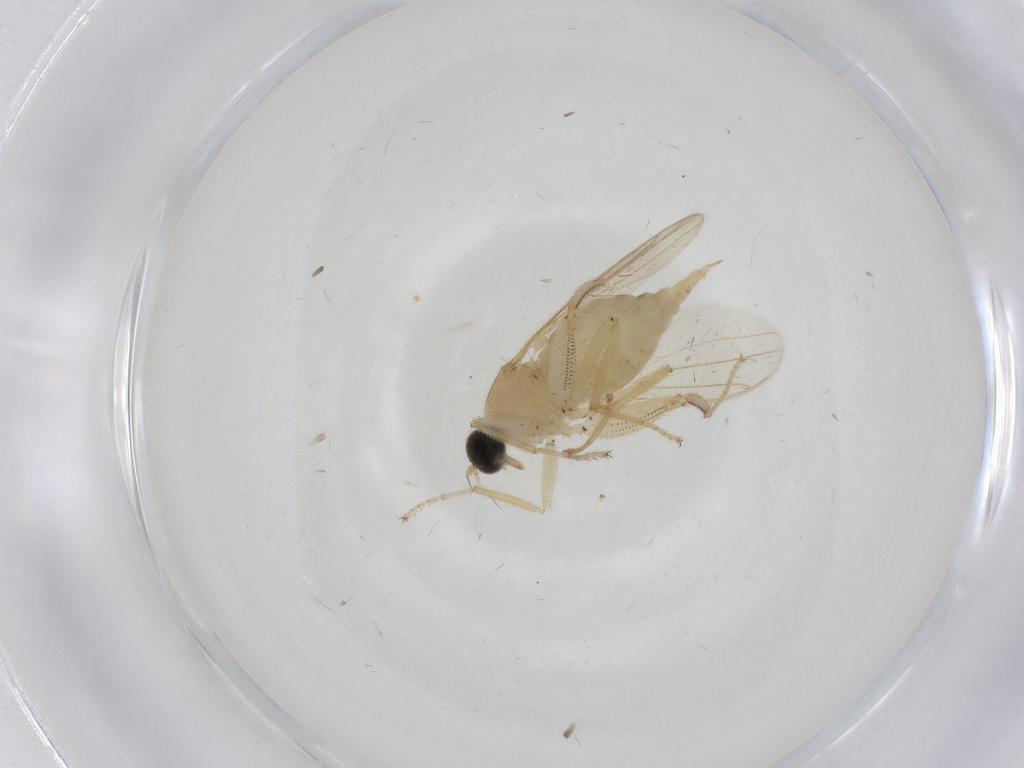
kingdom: Animalia
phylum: Arthropoda
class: Insecta
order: Diptera
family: Hybotidae
